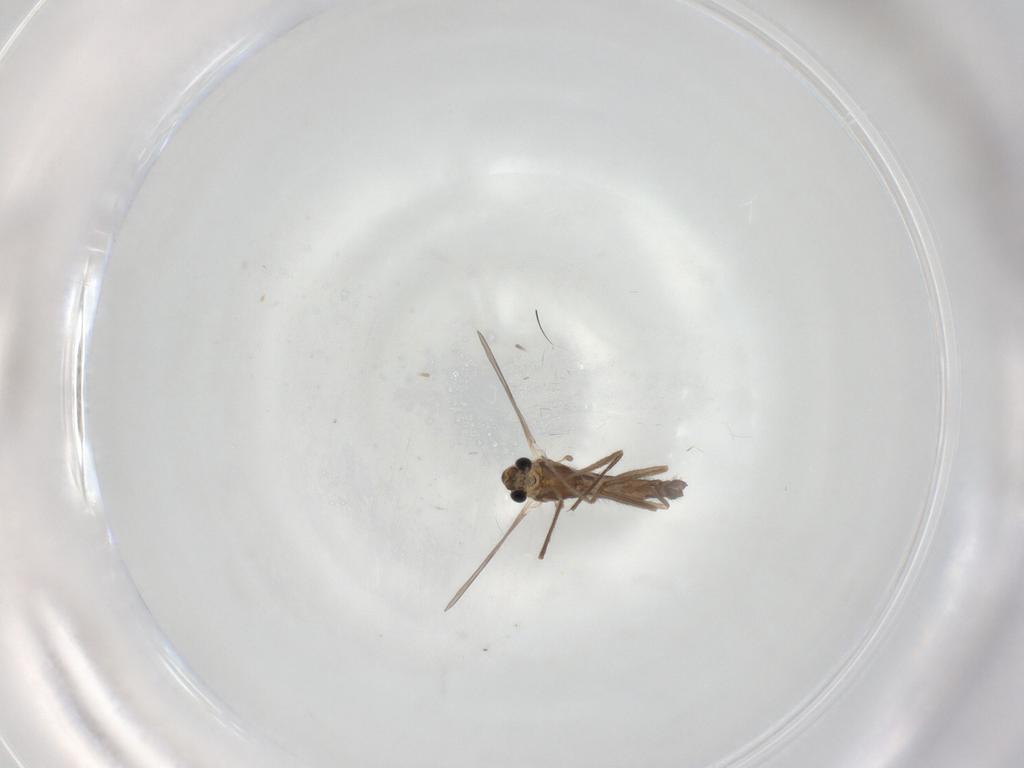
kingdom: Animalia
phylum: Arthropoda
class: Insecta
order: Diptera
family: Chironomidae
